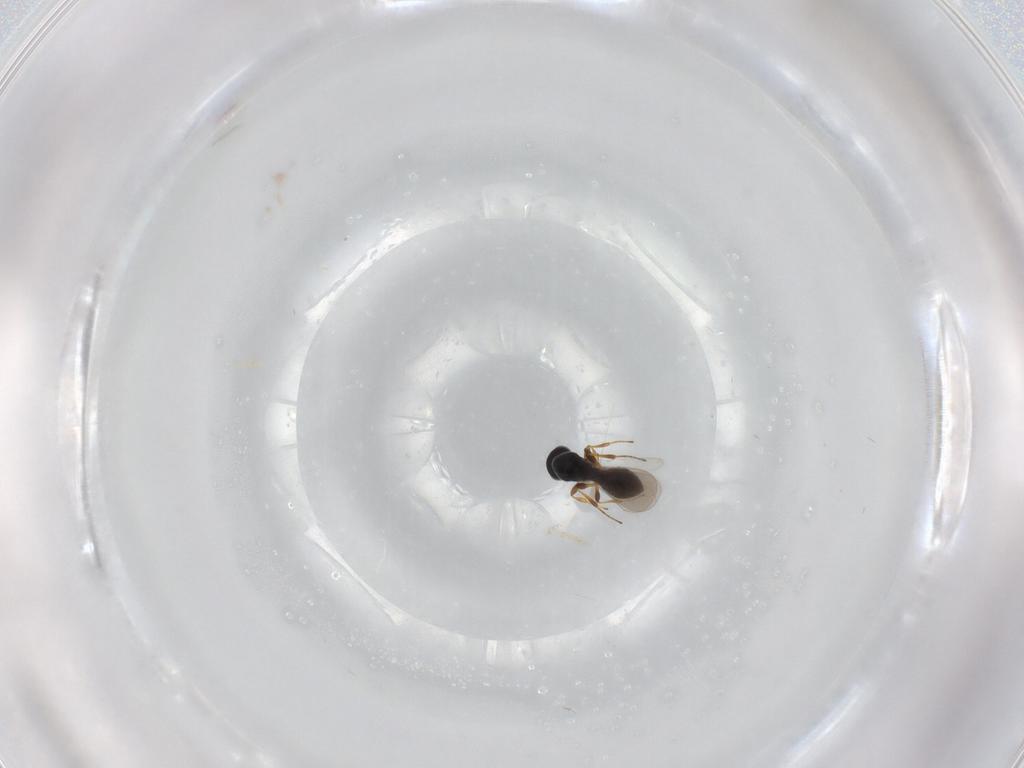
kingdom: Animalia
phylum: Arthropoda
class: Insecta
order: Hymenoptera
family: Platygastridae
